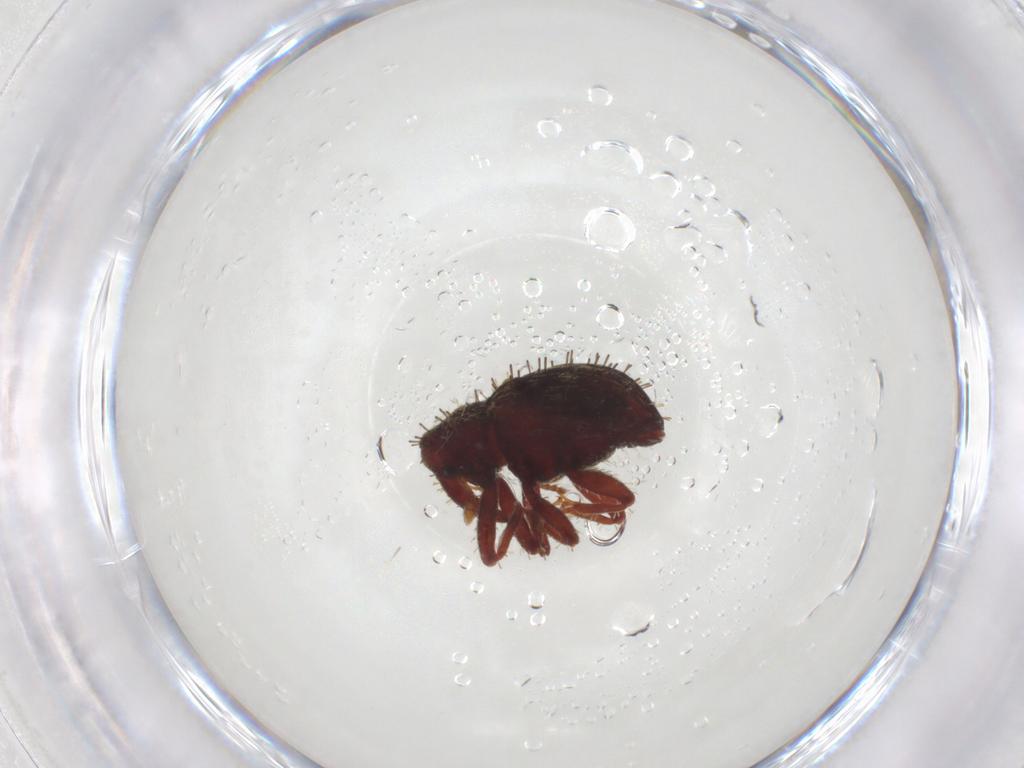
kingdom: Animalia
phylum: Arthropoda
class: Insecta
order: Coleoptera
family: Curculionidae
